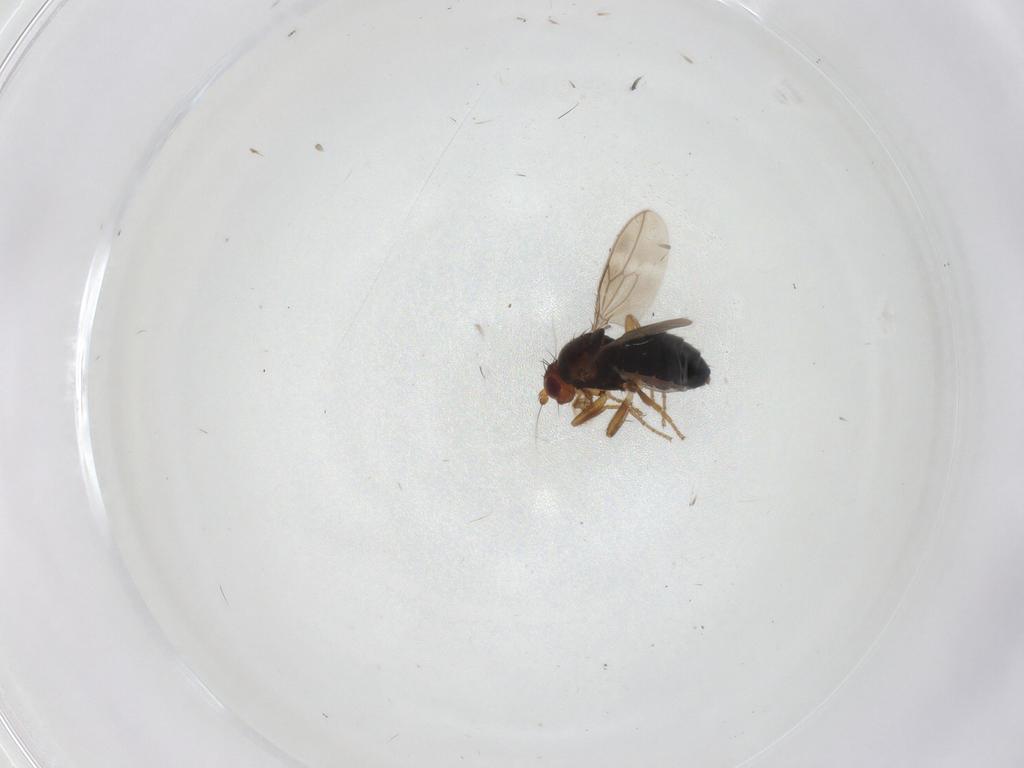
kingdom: Animalia
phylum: Arthropoda
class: Insecta
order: Diptera
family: Sphaeroceridae
